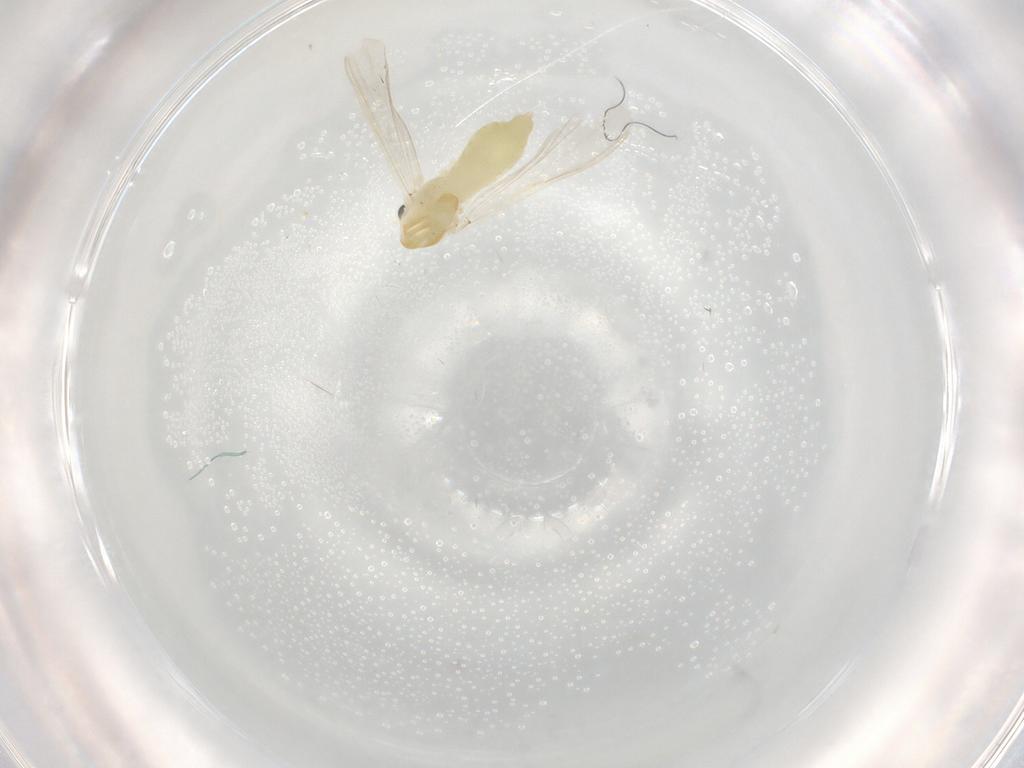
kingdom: Animalia
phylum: Arthropoda
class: Insecta
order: Diptera
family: Chironomidae
